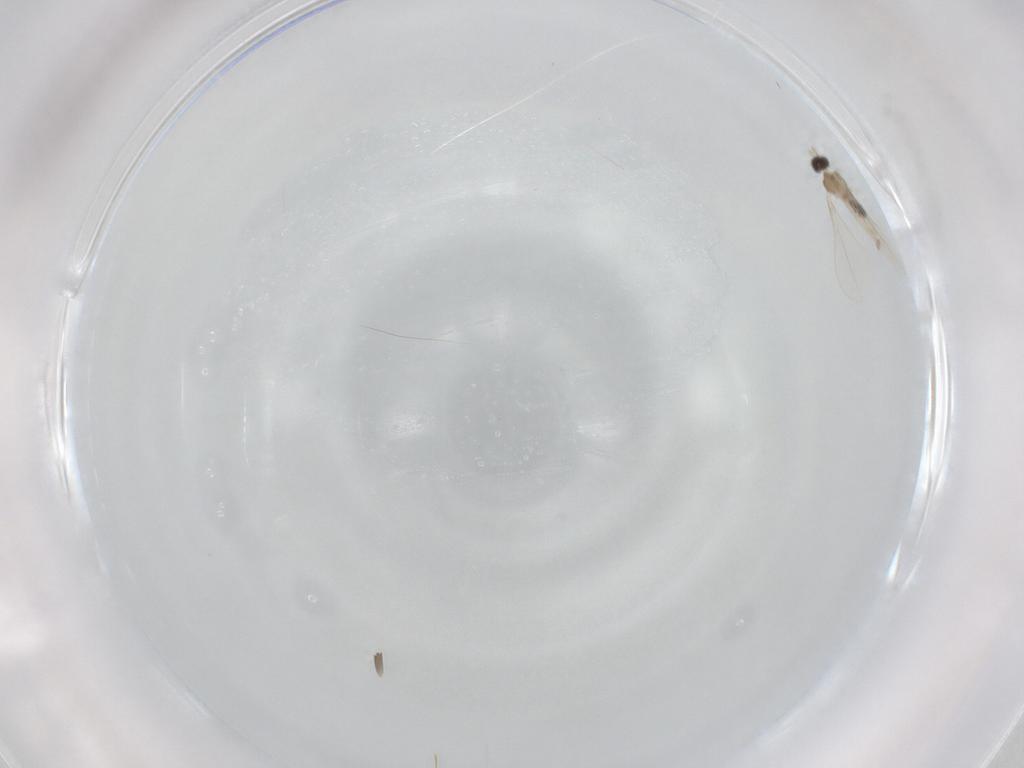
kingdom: Animalia
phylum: Arthropoda
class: Insecta
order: Diptera
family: Cecidomyiidae
